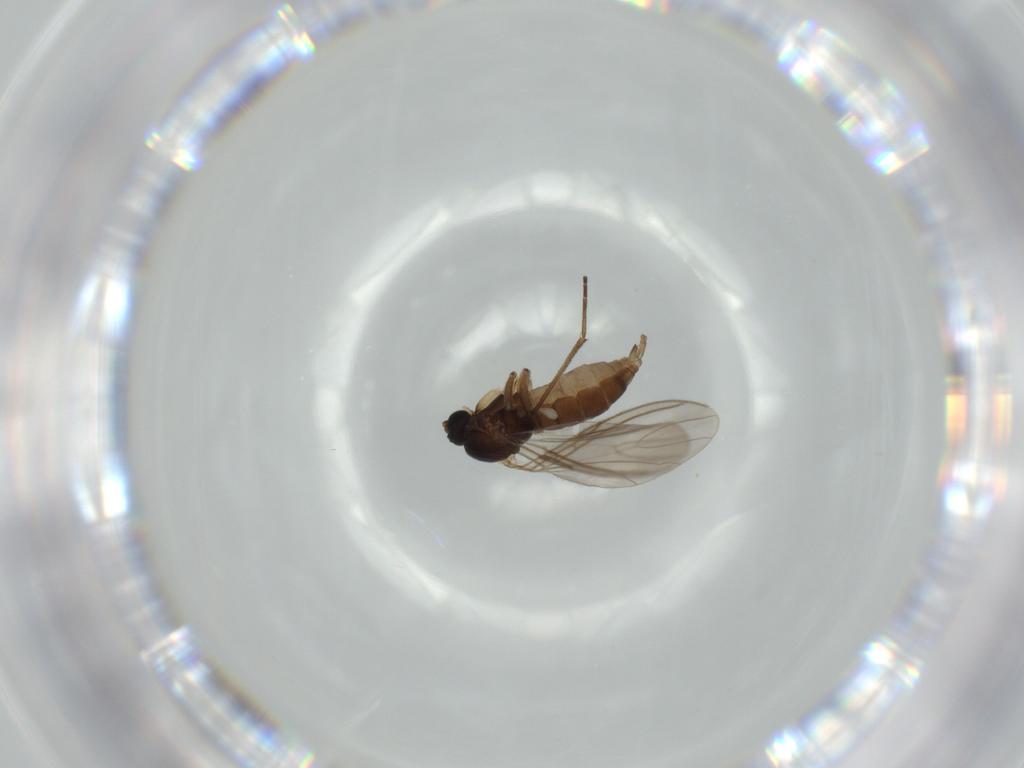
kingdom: Animalia
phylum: Arthropoda
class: Insecta
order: Diptera
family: Sciaridae
